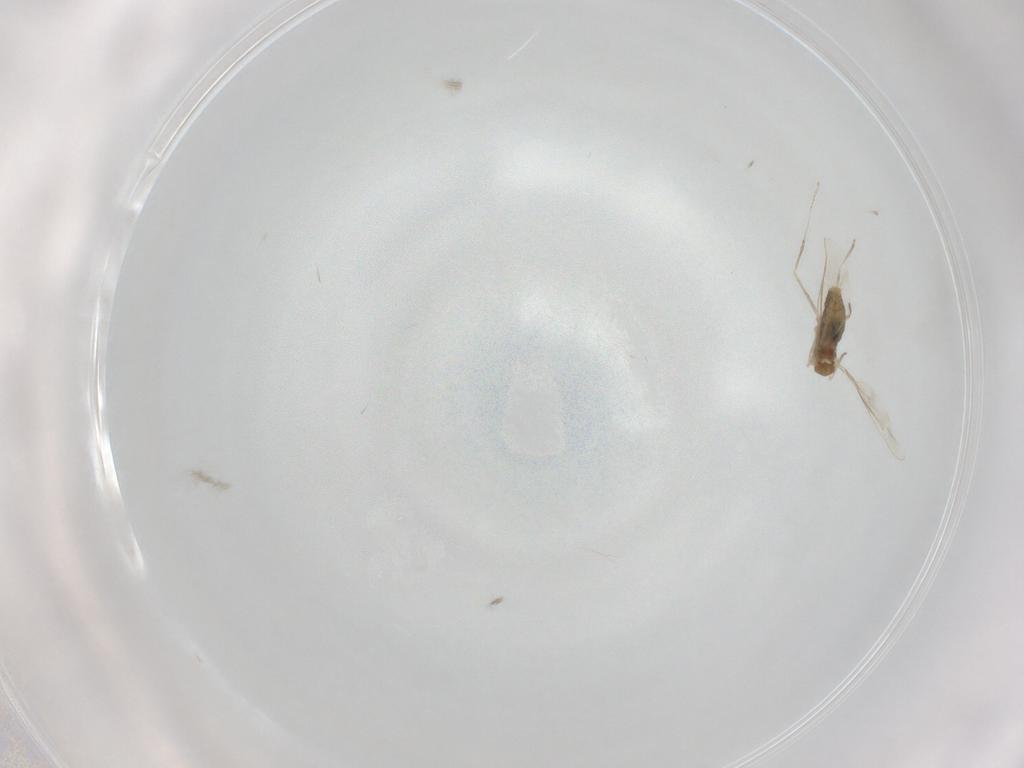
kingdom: Animalia
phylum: Arthropoda
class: Insecta
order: Diptera
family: Cecidomyiidae
